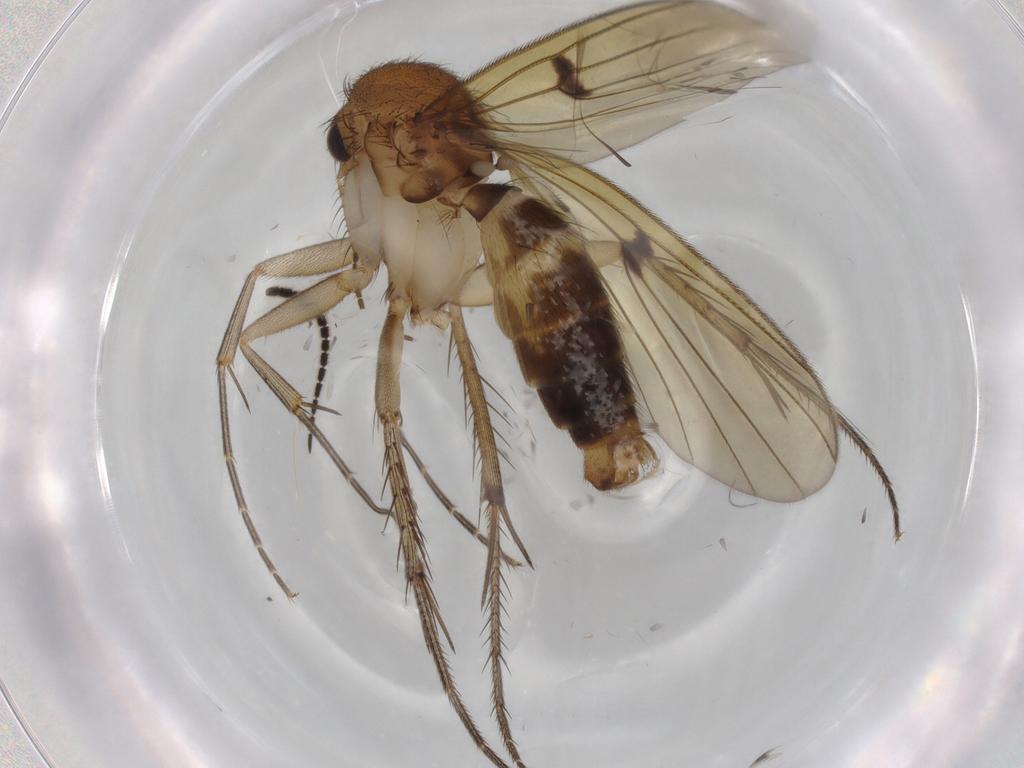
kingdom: Animalia
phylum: Arthropoda
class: Insecta
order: Diptera
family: Mycetophilidae
